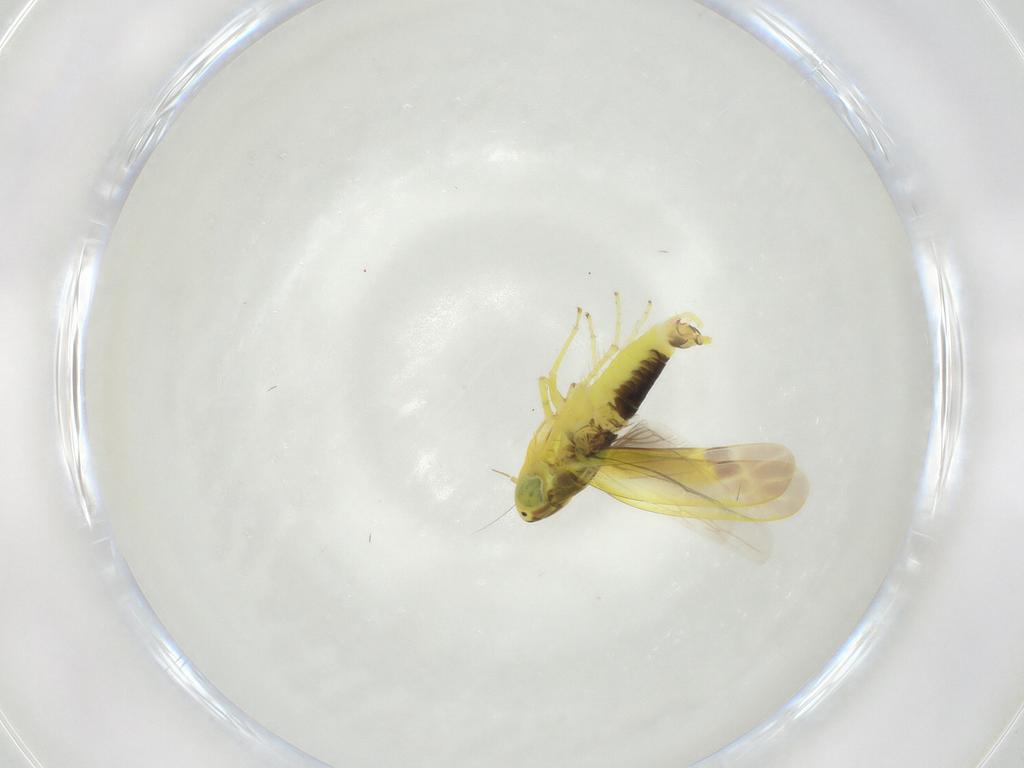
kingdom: Animalia
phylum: Arthropoda
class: Insecta
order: Hemiptera
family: Cicadellidae
